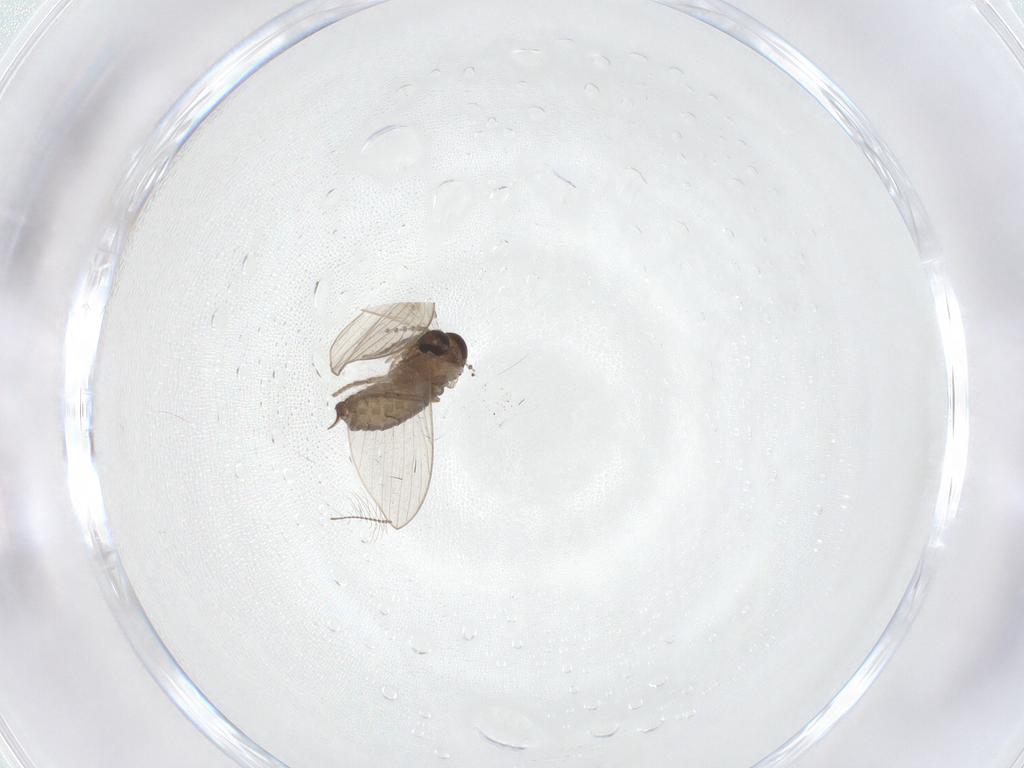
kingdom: Animalia
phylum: Arthropoda
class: Insecta
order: Diptera
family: Psychodidae
